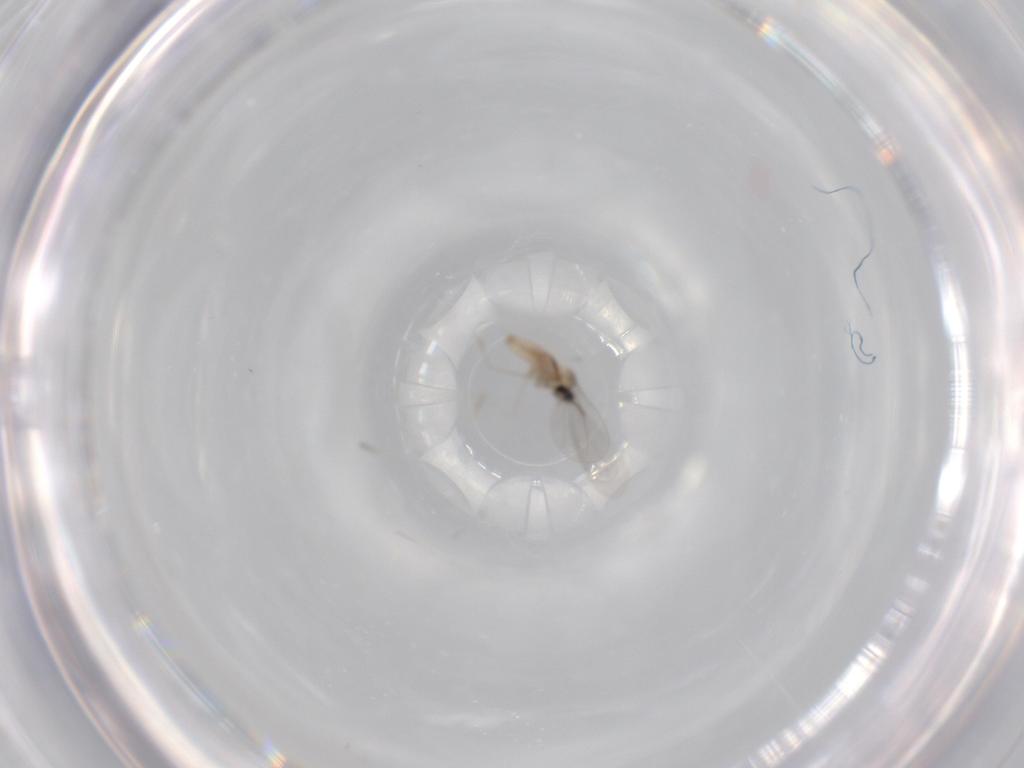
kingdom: Animalia
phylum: Arthropoda
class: Insecta
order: Diptera
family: Cecidomyiidae
